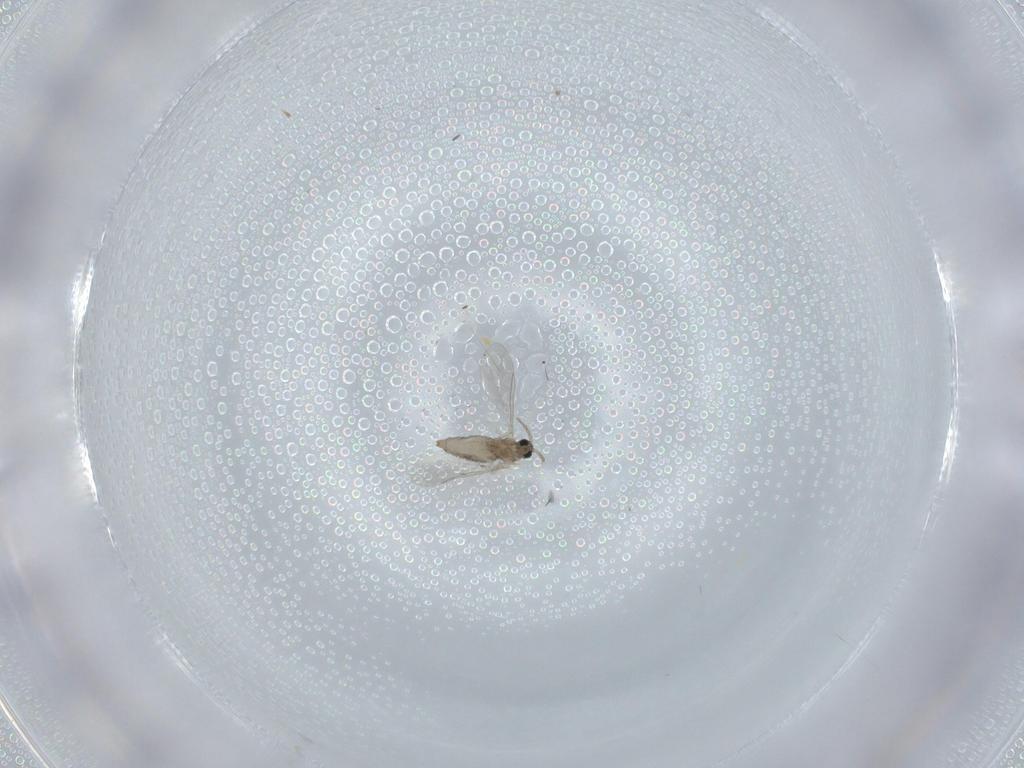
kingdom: Animalia
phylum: Arthropoda
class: Insecta
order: Diptera
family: Cecidomyiidae
